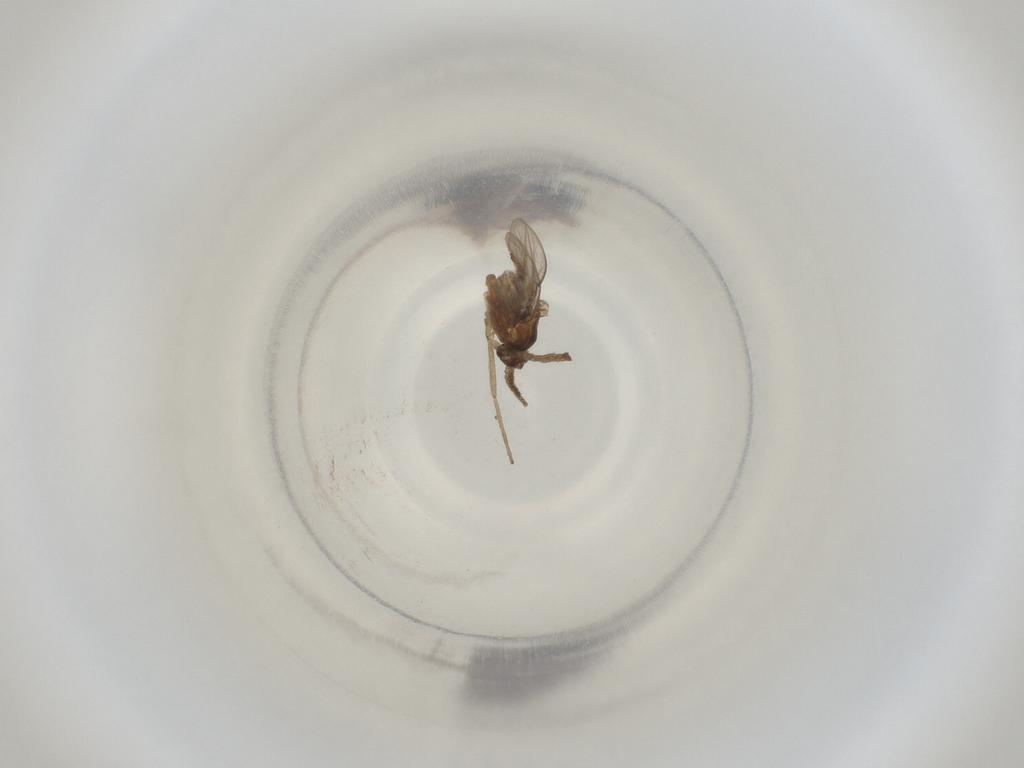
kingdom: Animalia
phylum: Arthropoda
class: Insecta
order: Diptera
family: Cecidomyiidae
